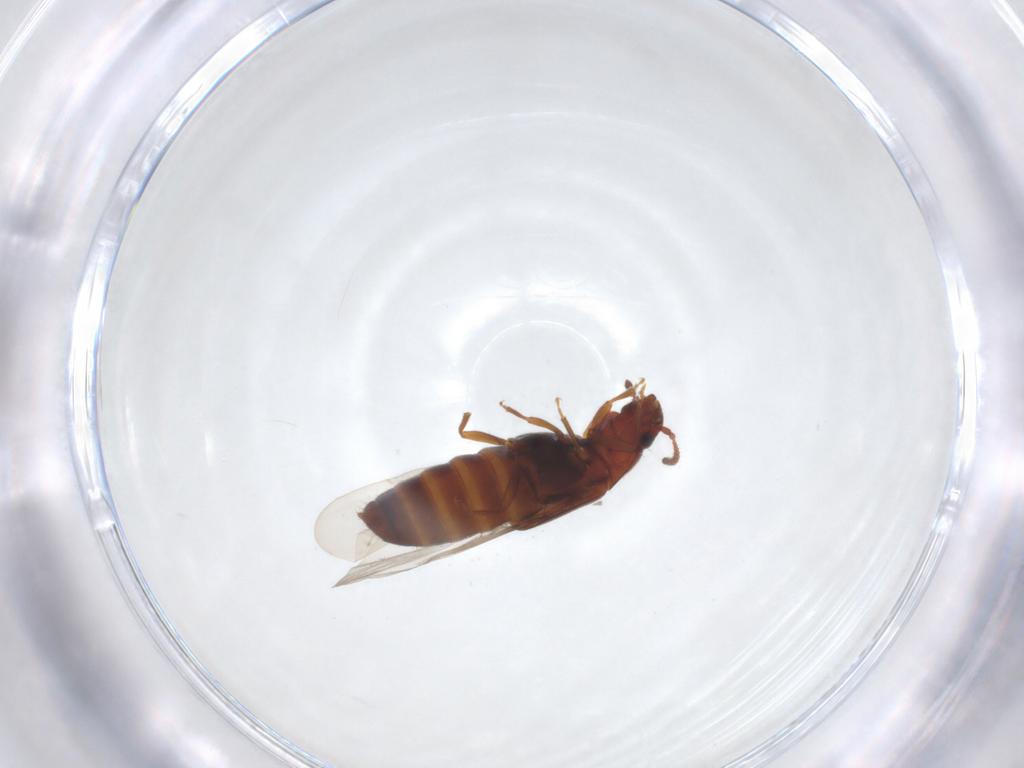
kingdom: Animalia
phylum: Arthropoda
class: Insecta
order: Coleoptera
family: Staphylinidae
